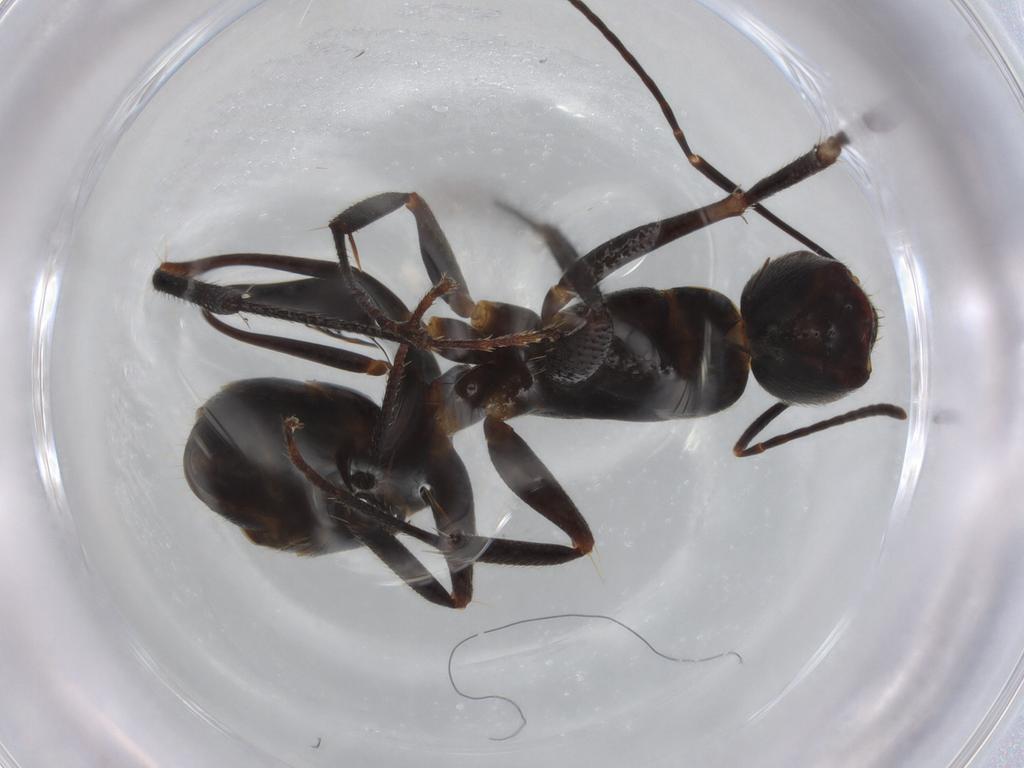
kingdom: Animalia
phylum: Arthropoda
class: Insecta
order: Hymenoptera
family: Formicidae
